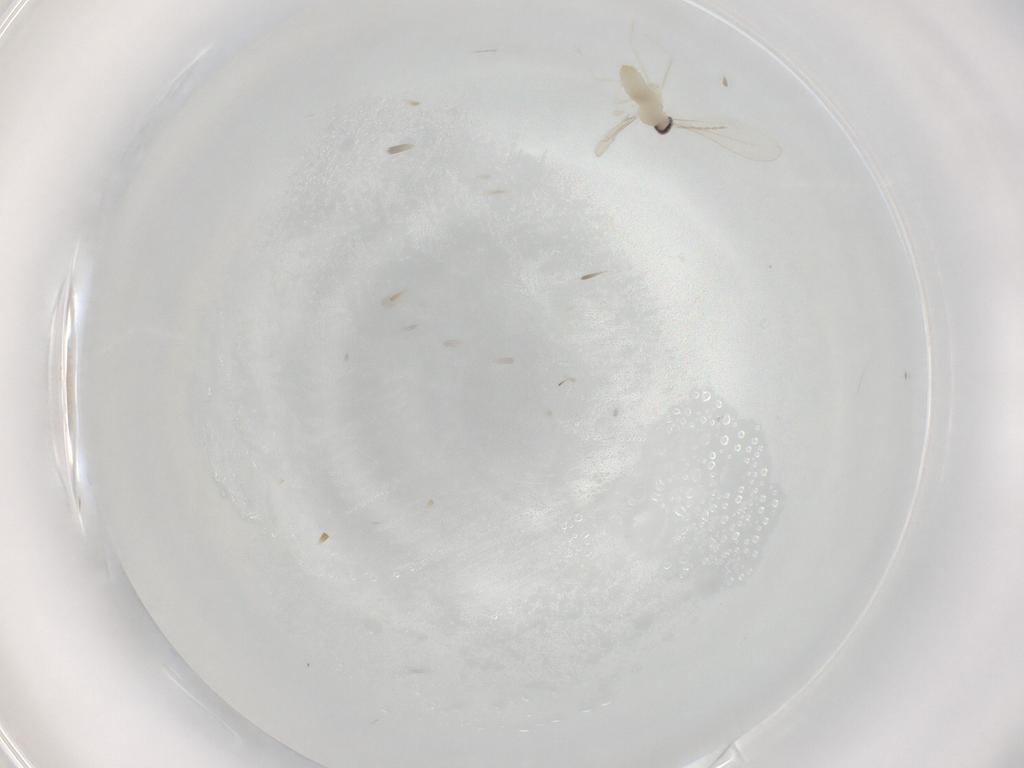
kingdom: Animalia
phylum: Arthropoda
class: Insecta
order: Diptera
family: Cecidomyiidae
